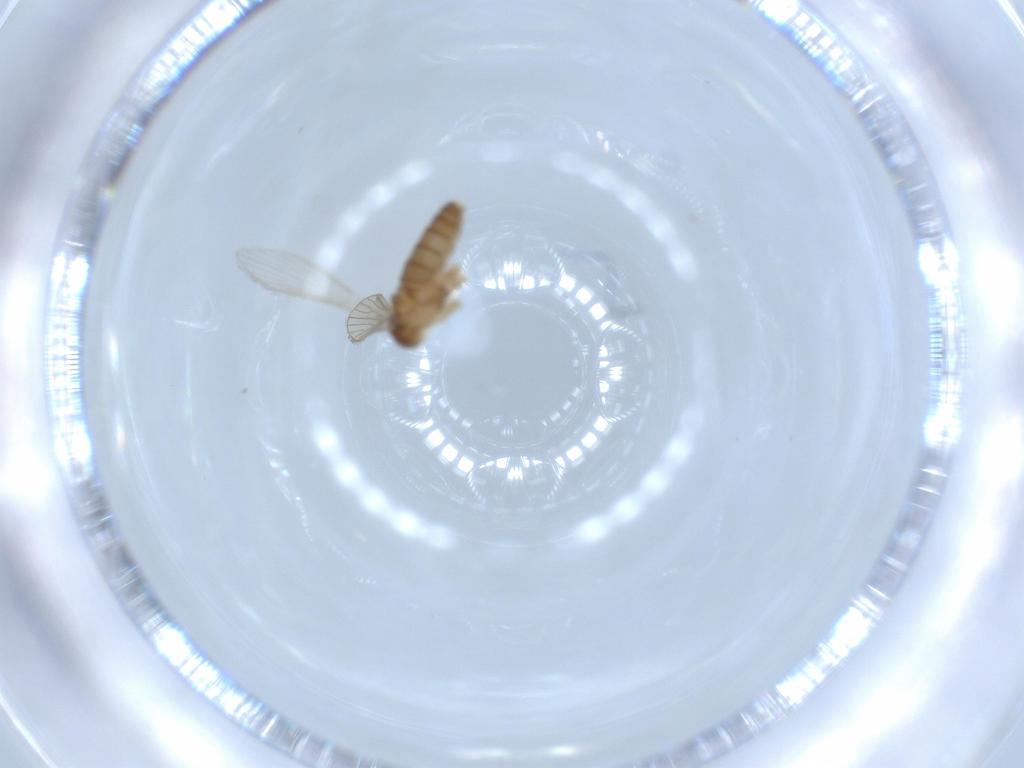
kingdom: Animalia
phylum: Arthropoda
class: Insecta
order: Diptera
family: Psychodidae
